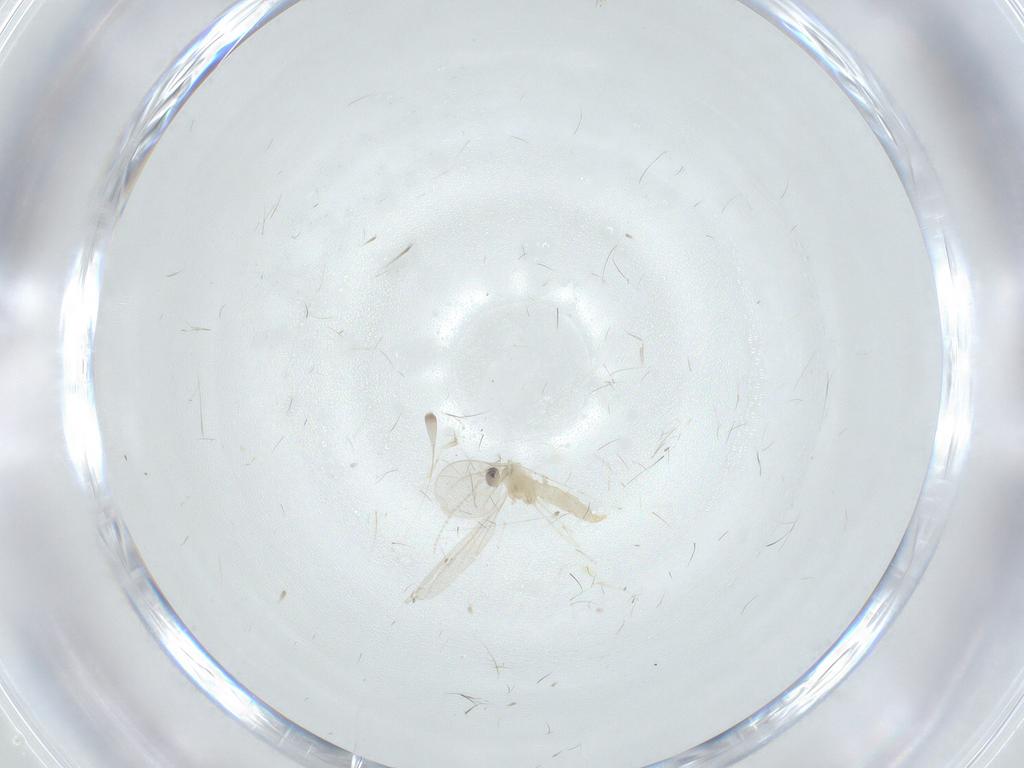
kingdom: Animalia
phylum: Arthropoda
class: Insecta
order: Diptera
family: Cecidomyiidae
